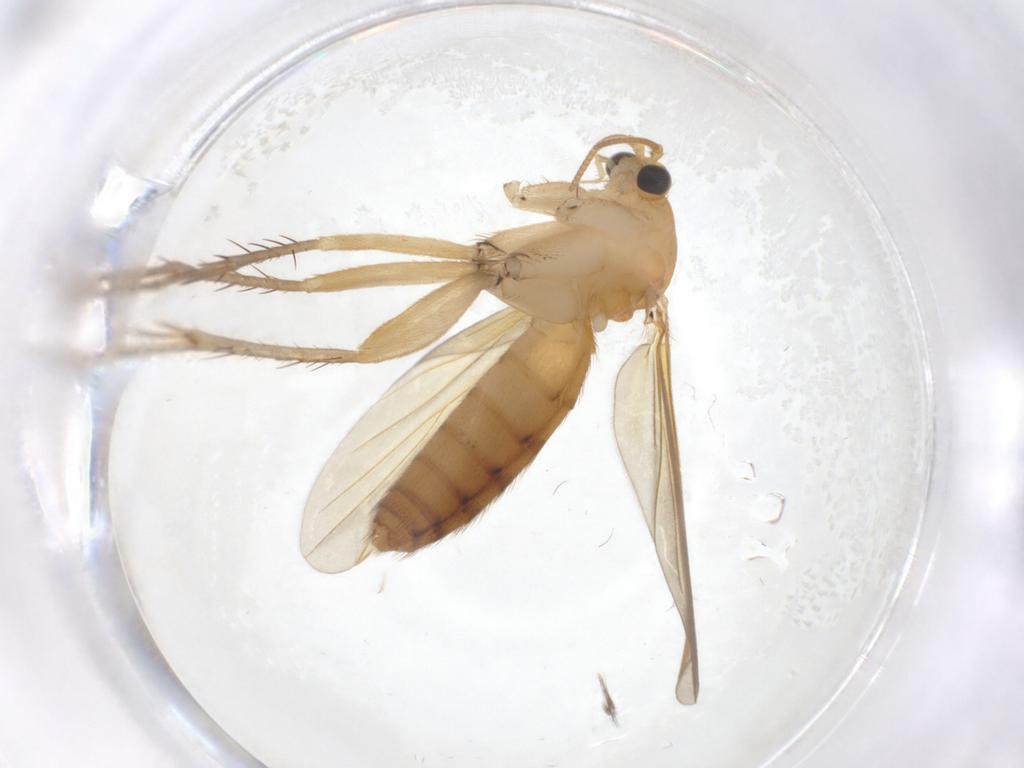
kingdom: Animalia
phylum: Arthropoda
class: Insecta
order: Diptera
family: Mycetophilidae
